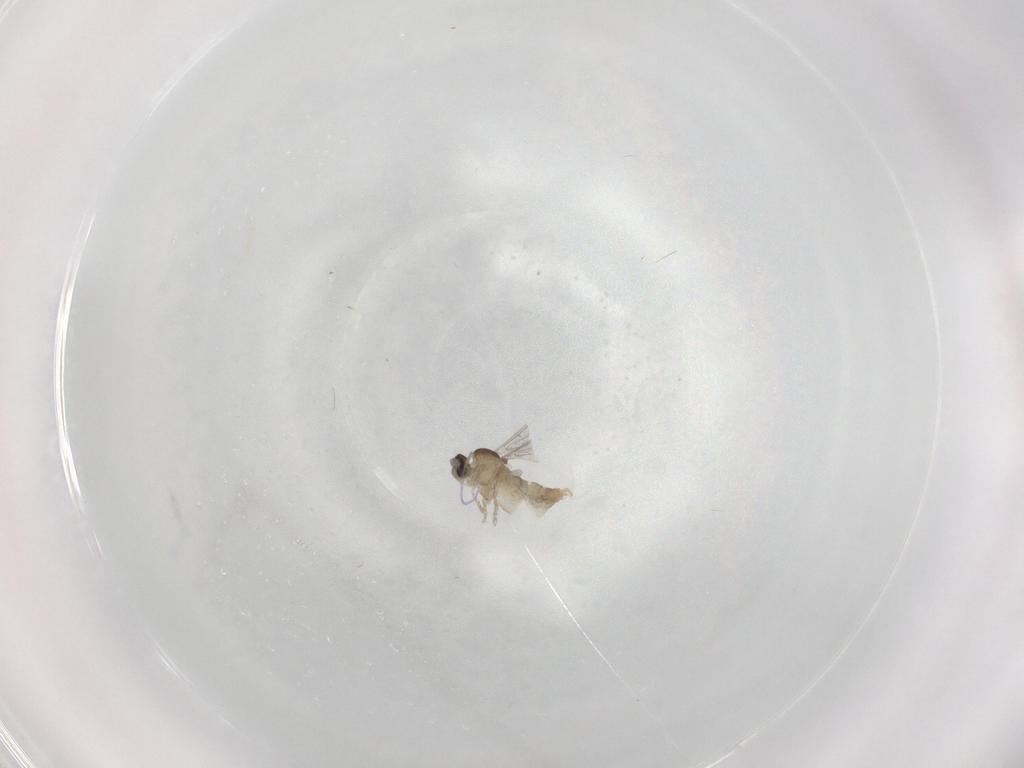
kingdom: Animalia
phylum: Arthropoda
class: Insecta
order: Diptera
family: Cecidomyiidae
